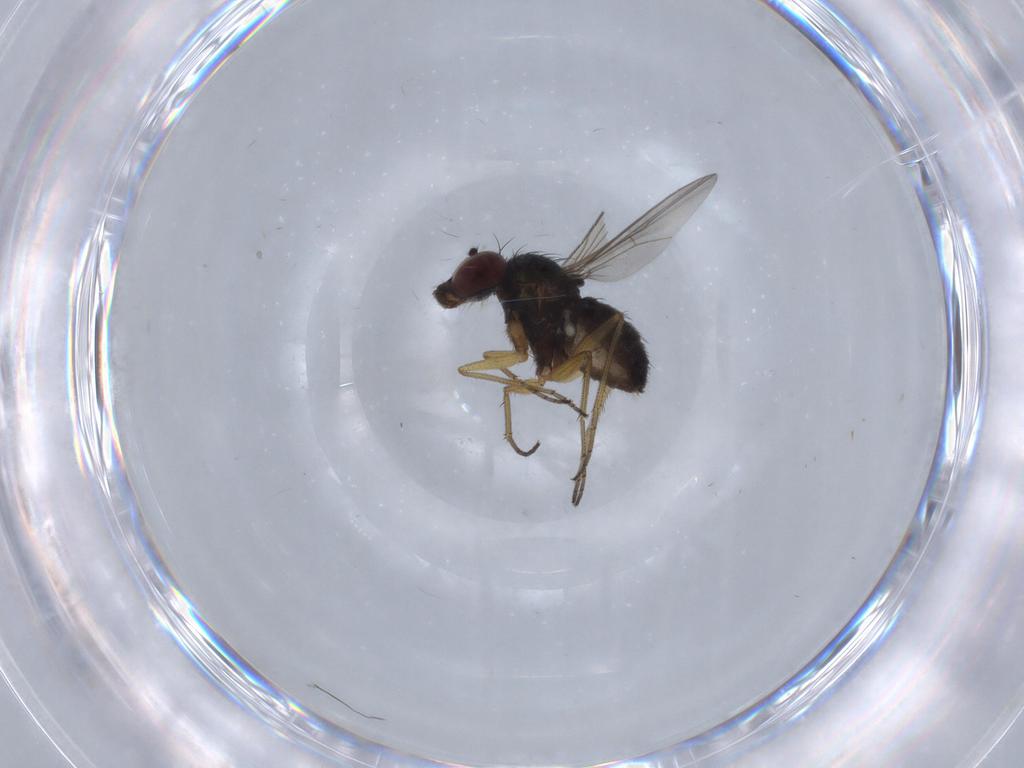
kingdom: Animalia
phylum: Arthropoda
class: Insecta
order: Diptera
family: Dolichopodidae
